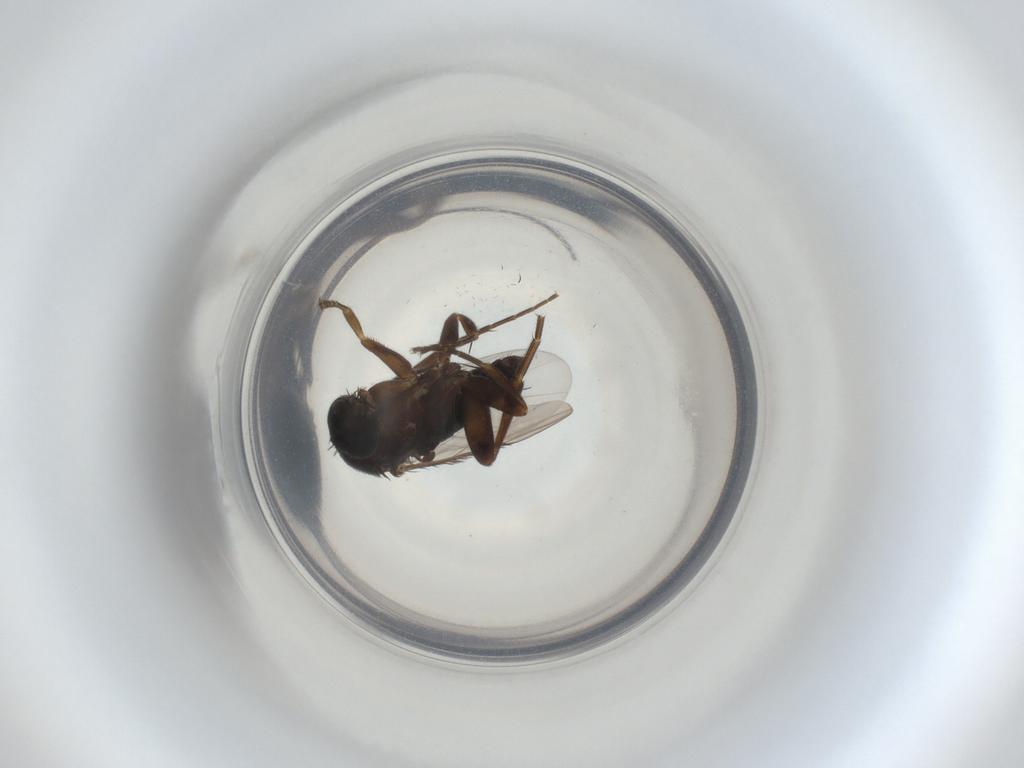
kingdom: Animalia
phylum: Arthropoda
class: Insecta
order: Diptera
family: Phoridae
